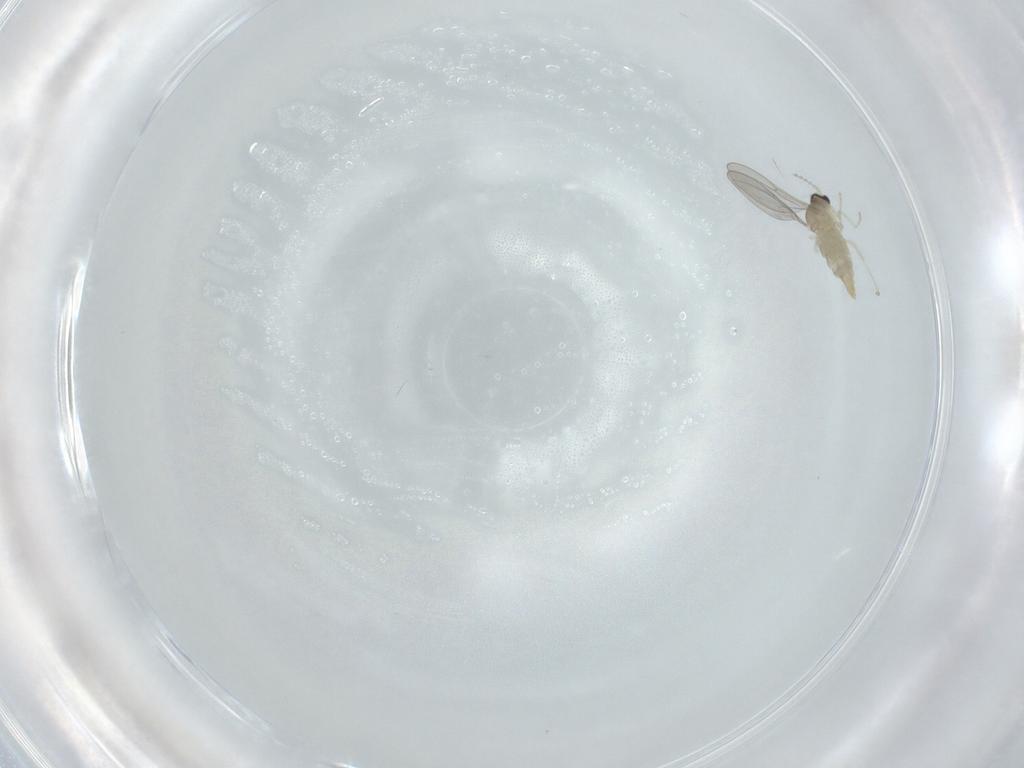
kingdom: Animalia
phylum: Arthropoda
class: Insecta
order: Diptera
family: Cecidomyiidae
